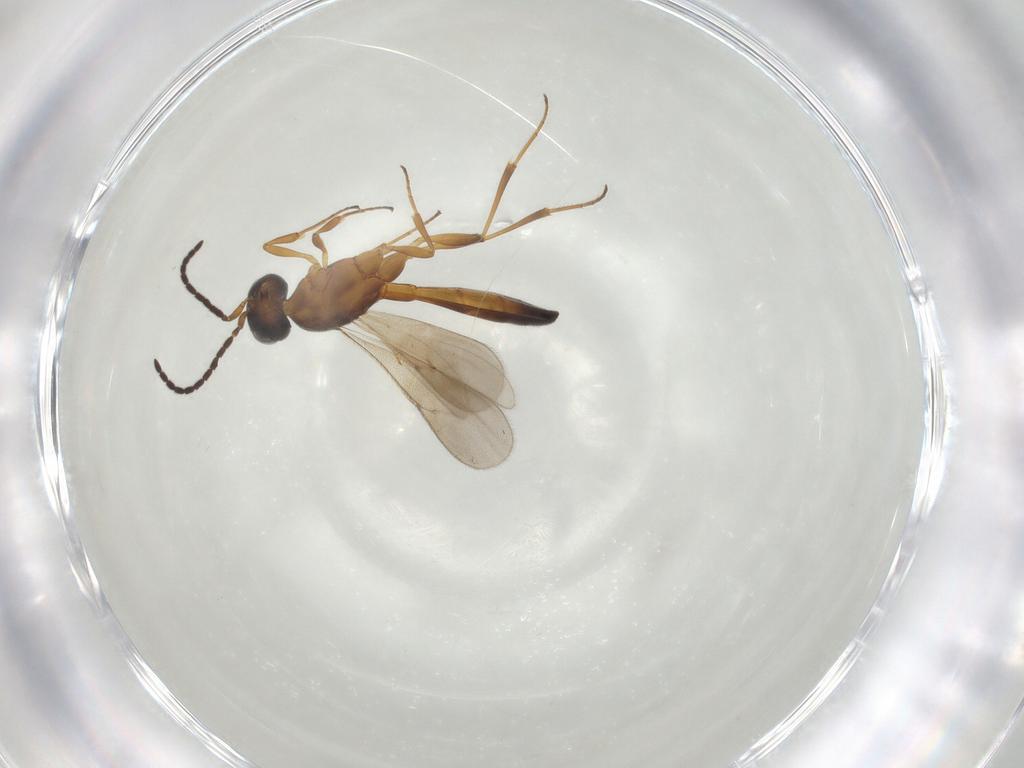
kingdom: Animalia
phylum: Arthropoda
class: Insecta
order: Hymenoptera
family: Scelionidae
